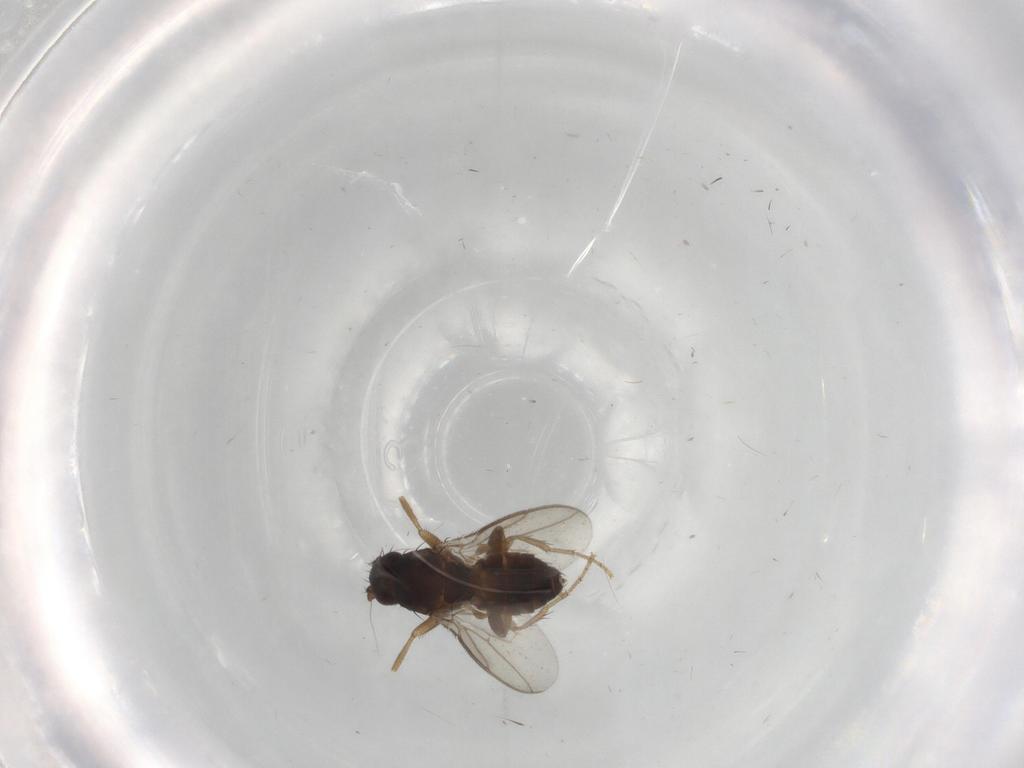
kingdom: Animalia
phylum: Arthropoda
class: Insecta
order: Diptera
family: Sphaeroceridae
